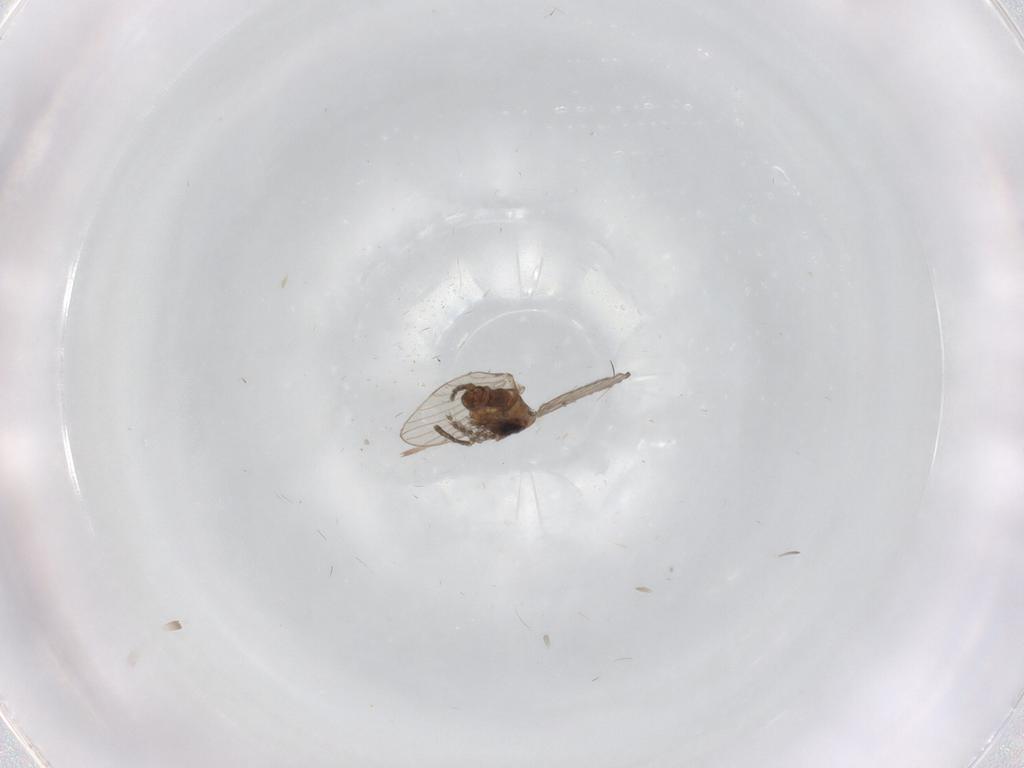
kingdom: Animalia
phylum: Arthropoda
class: Insecta
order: Diptera
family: Psychodidae
